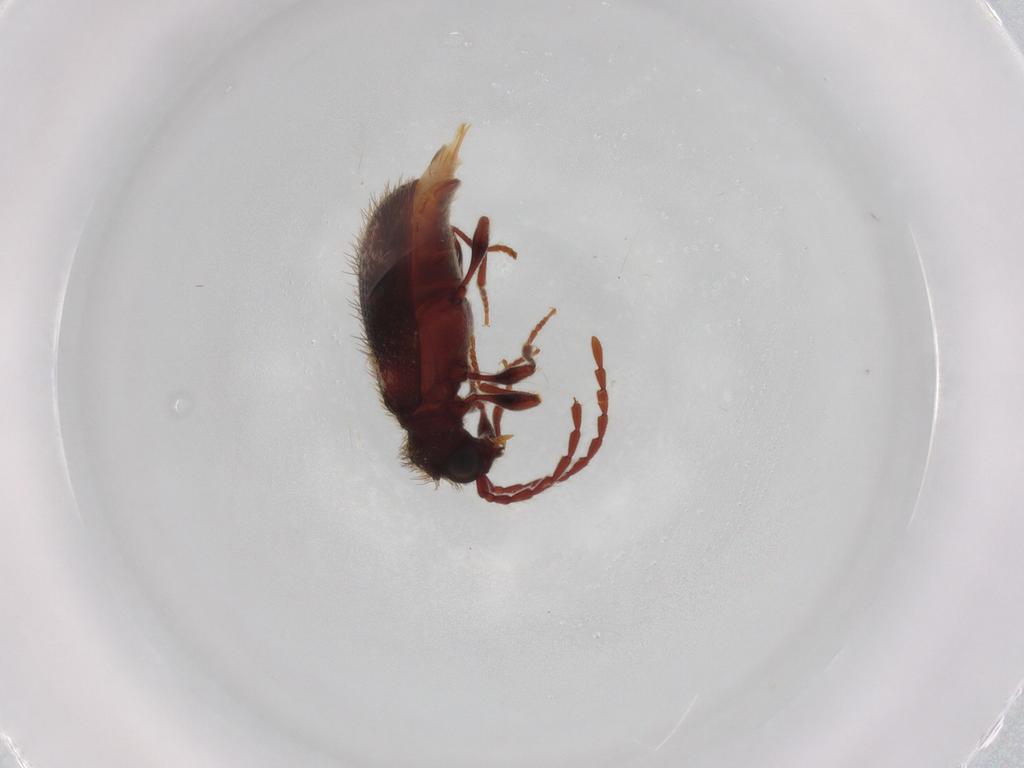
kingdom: Animalia
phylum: Arthropoda
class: Insecta
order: Coleoptera
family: Ptinidae
